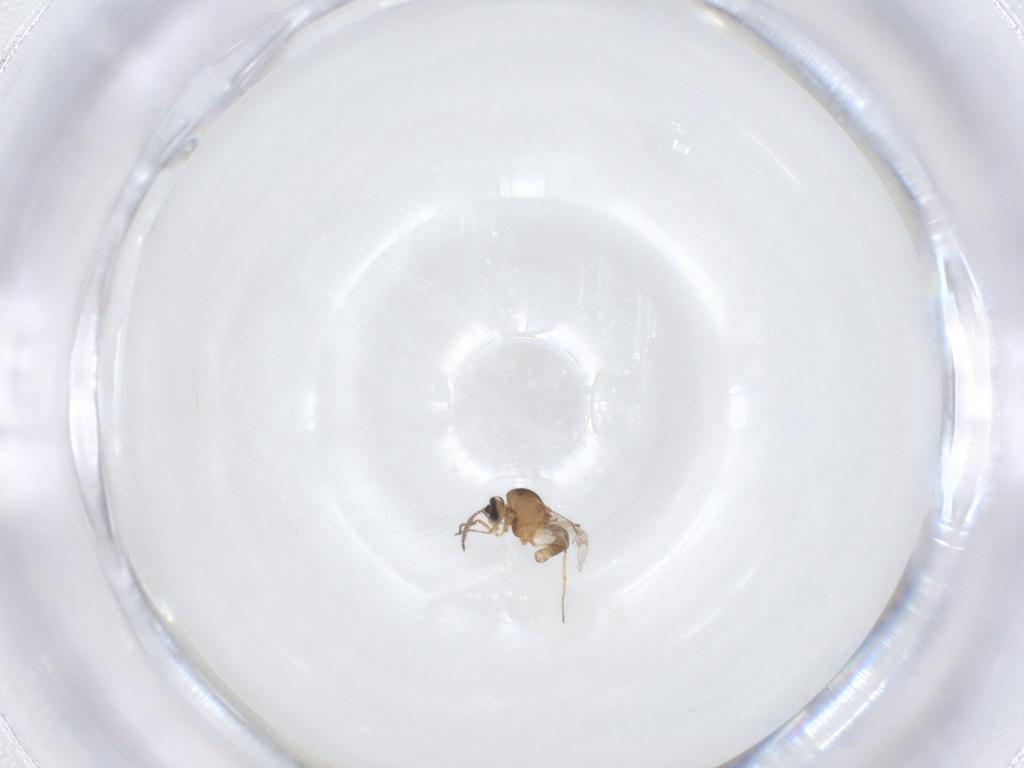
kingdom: Animalia
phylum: Arthropoda
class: Insecta
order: Diptera
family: Ceratopogonidae
